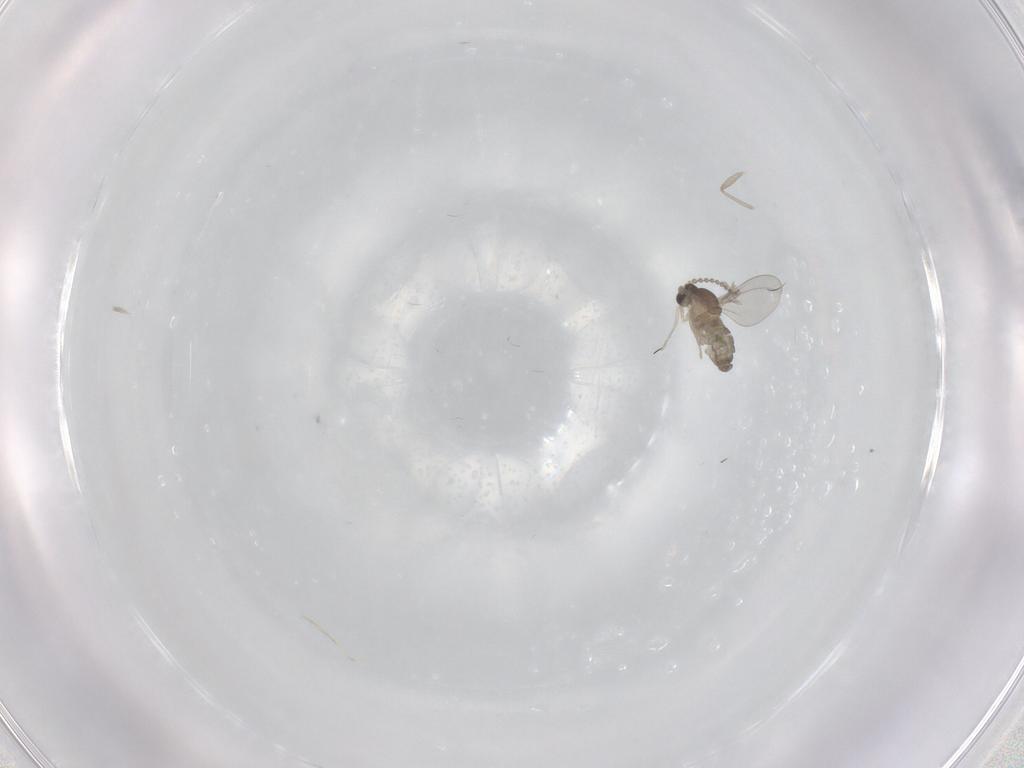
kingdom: Animalia
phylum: Arthropoda
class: Insecta
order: Diptera
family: Sciaridae
